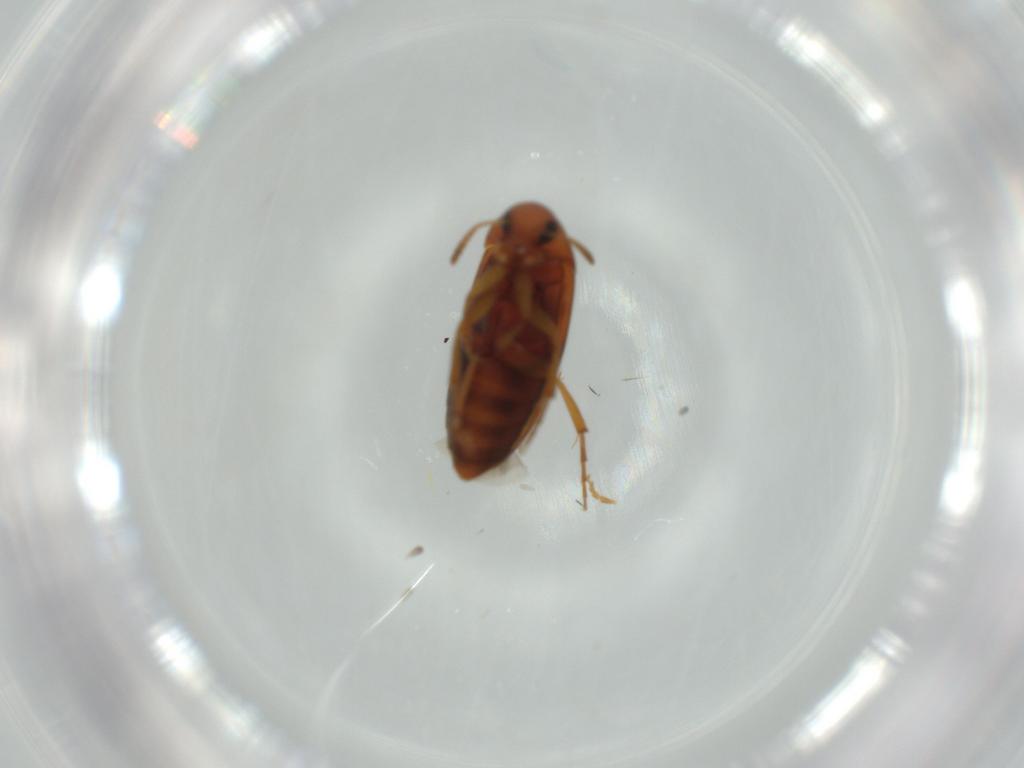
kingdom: Animalia
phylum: Arthropoda
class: Insecta
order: Coleoptera
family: Scraptiidae
